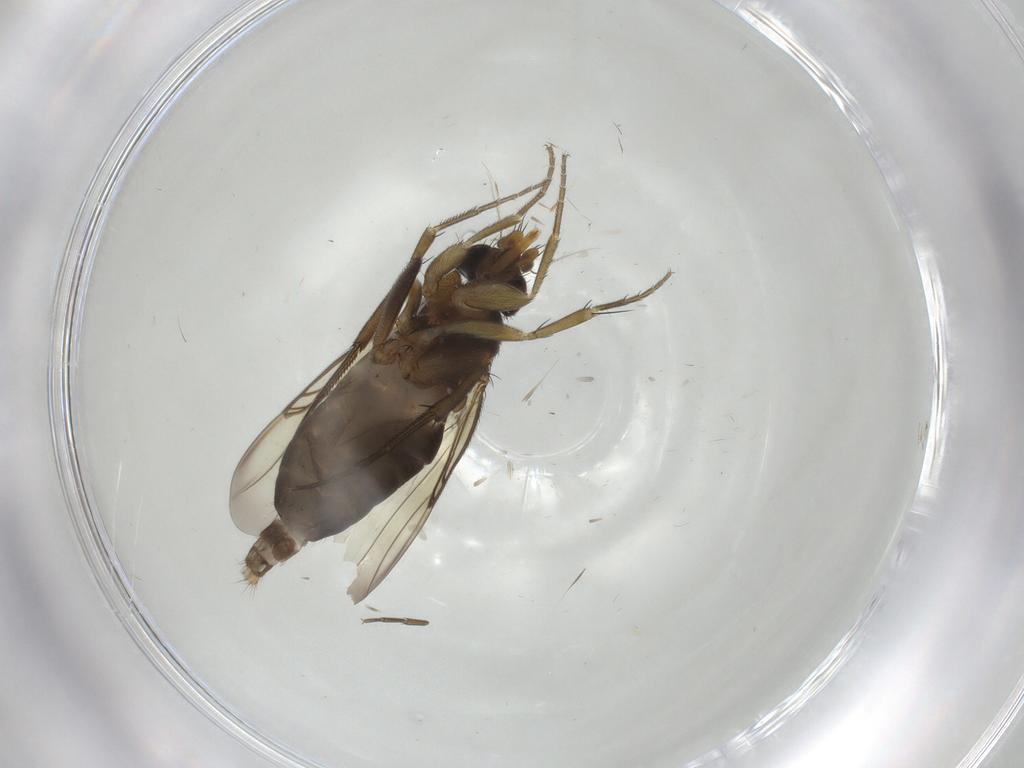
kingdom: Animalia
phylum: Arthropoda
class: Insecta
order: Diptera
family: Phoridae
